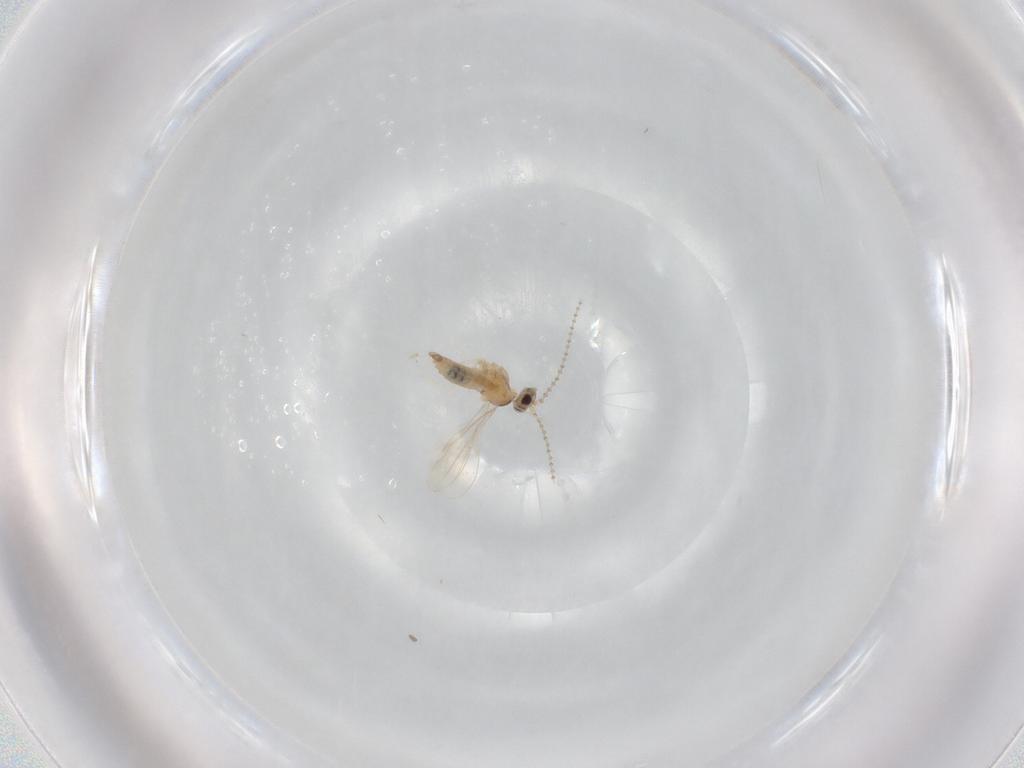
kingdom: Animalia
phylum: Arthropoda
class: Insecta
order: Diptera
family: Cecidomyiidae
